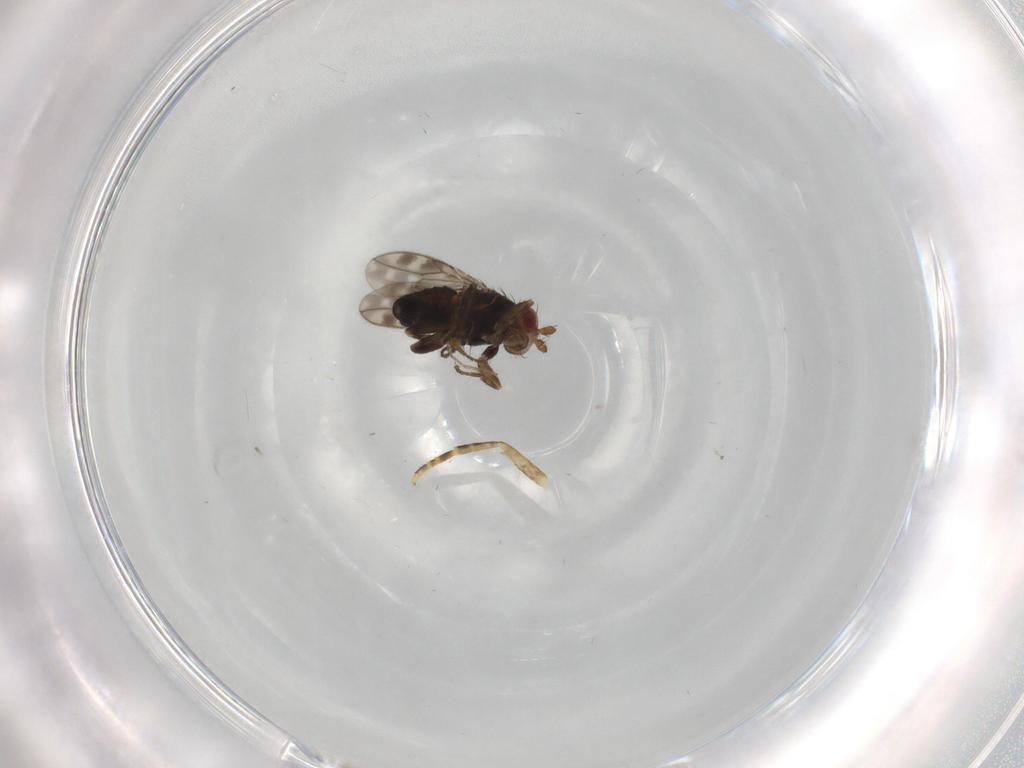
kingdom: Animalia
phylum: Arthropoda
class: Insecta
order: Diptera
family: Sphaeroceridae
